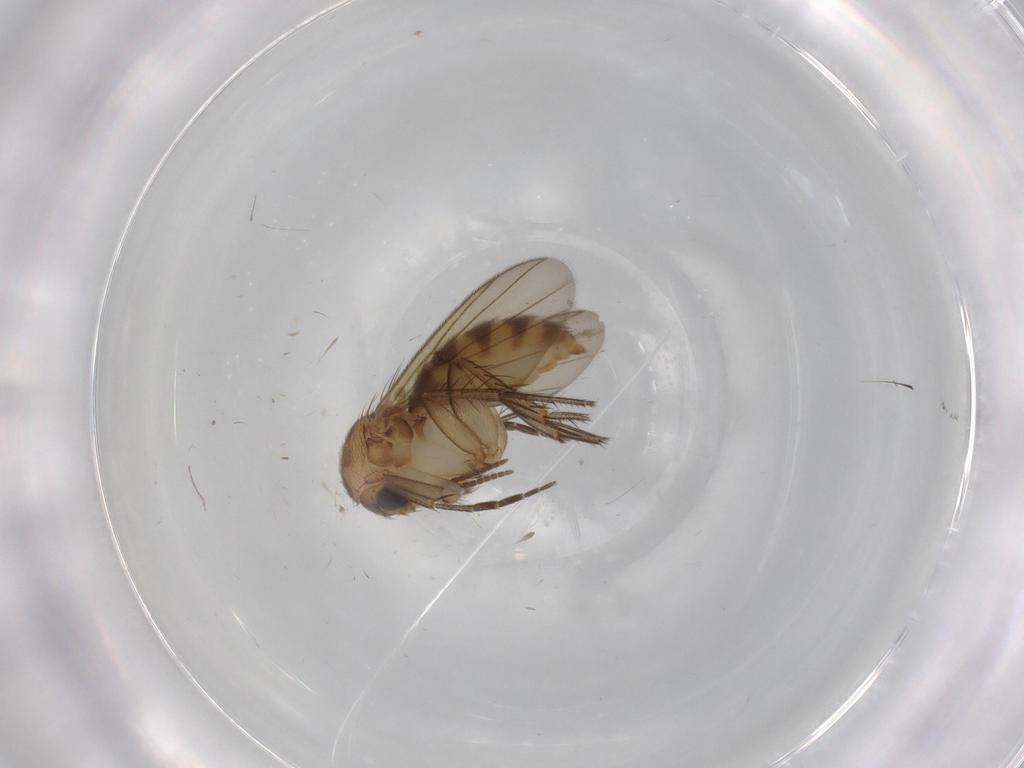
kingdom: Animalia
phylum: Arthropoda
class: Insecta
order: Diptera
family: Mycetophilidae
